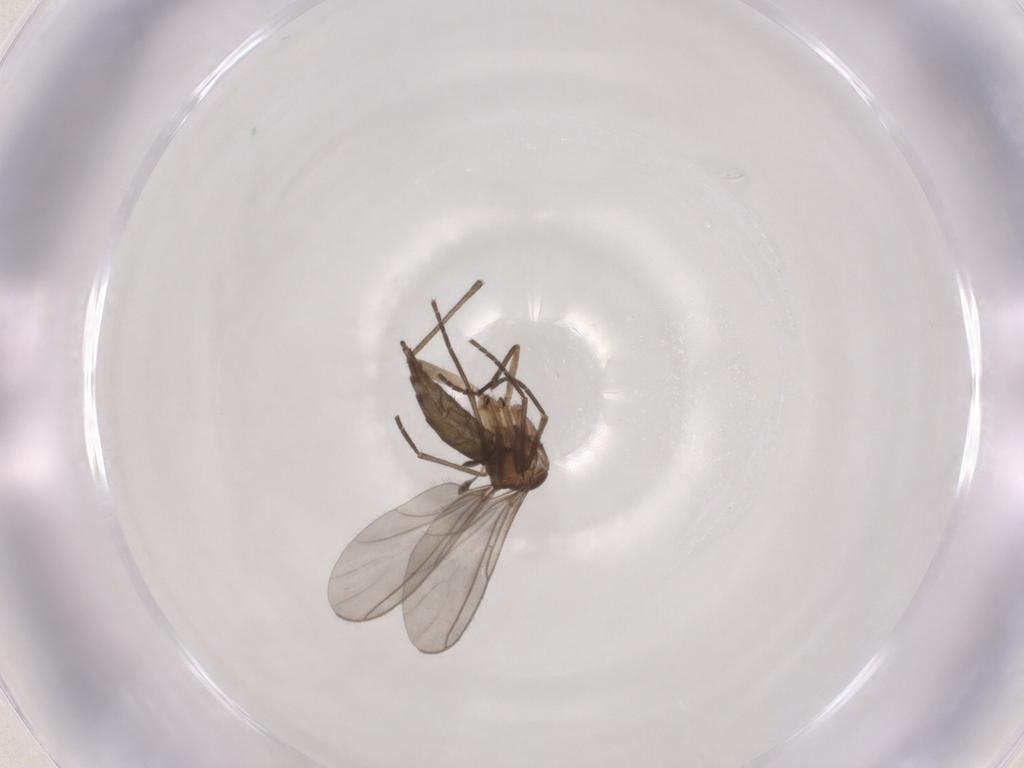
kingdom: Animalia
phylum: Arthropoda
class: Insecta
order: Diptera
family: Sciaridae
